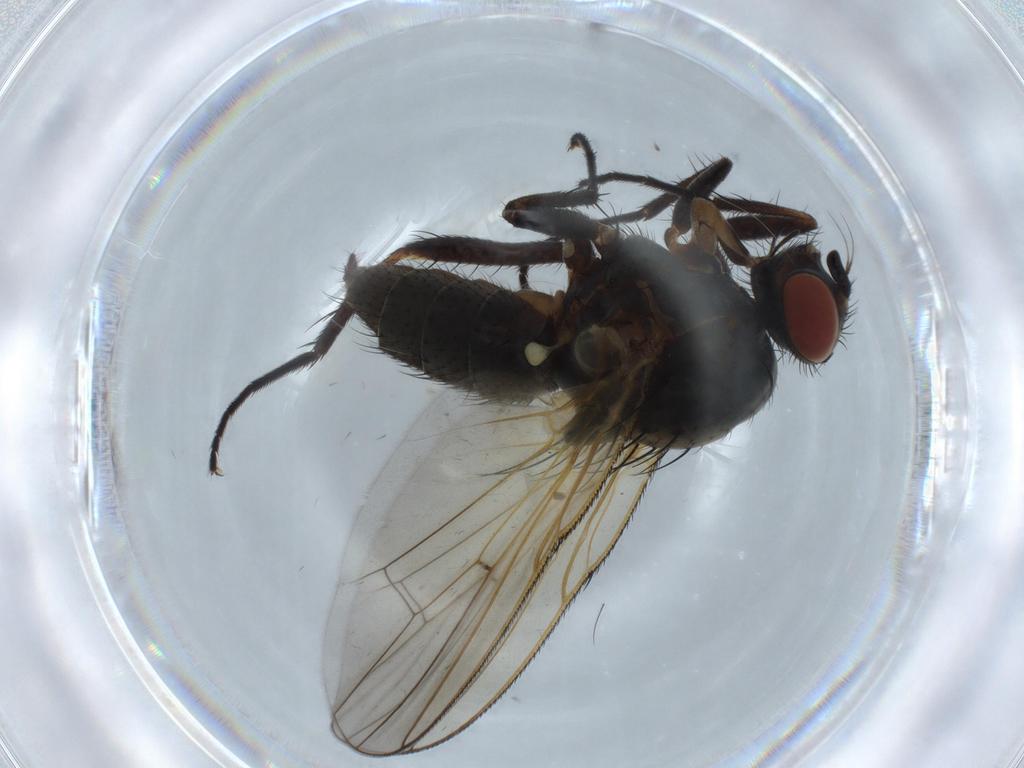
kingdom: Animalia
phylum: Arthropoda
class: Insecta
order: Diptera
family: Anthomyiidae
